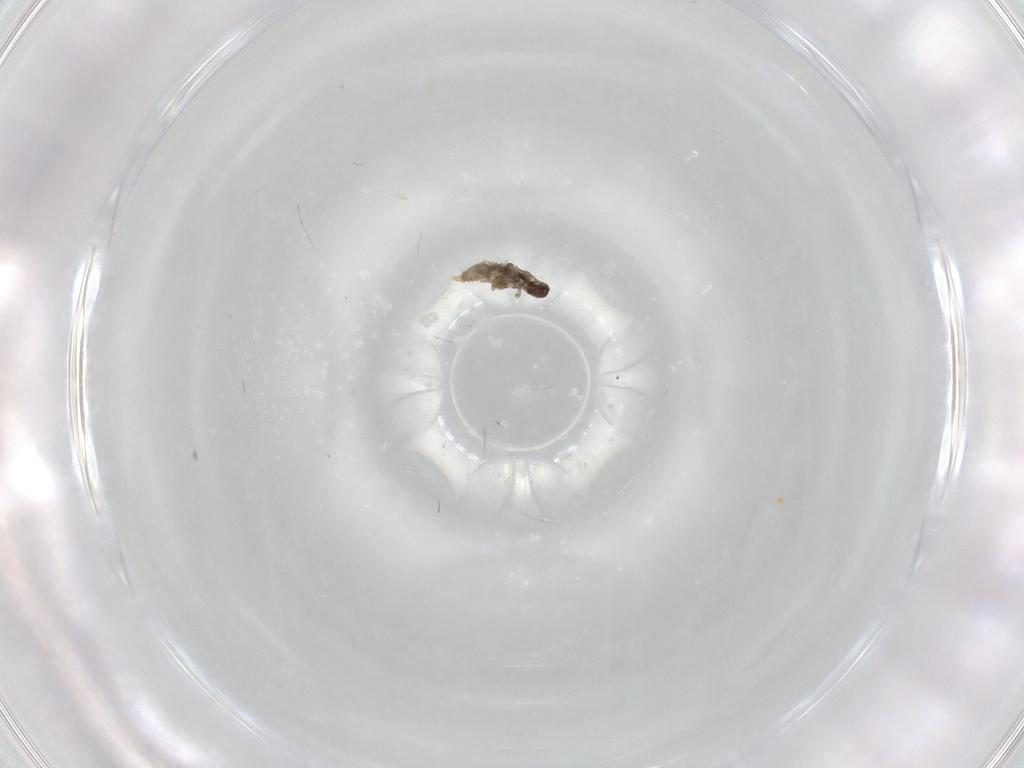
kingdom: Animalia
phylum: Arthropoda
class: Insecta
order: Diptera
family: Cecidomyiidae
